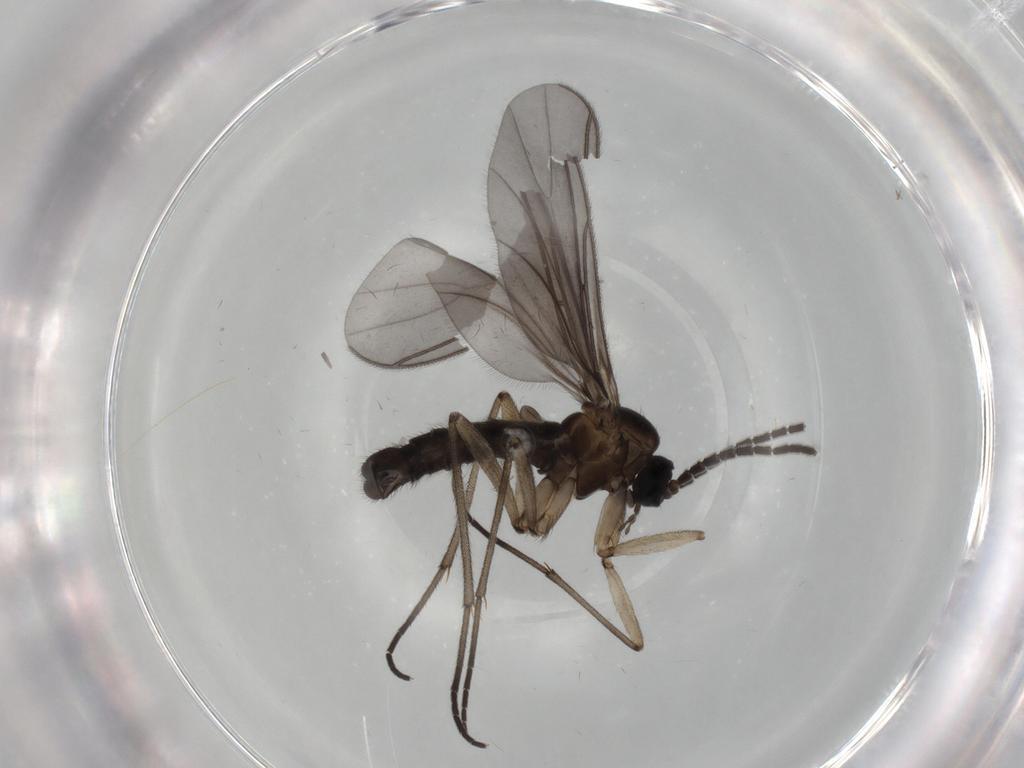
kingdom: Animalia
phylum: Arthropoda
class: Insecta
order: Diptera
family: Sciaridae
